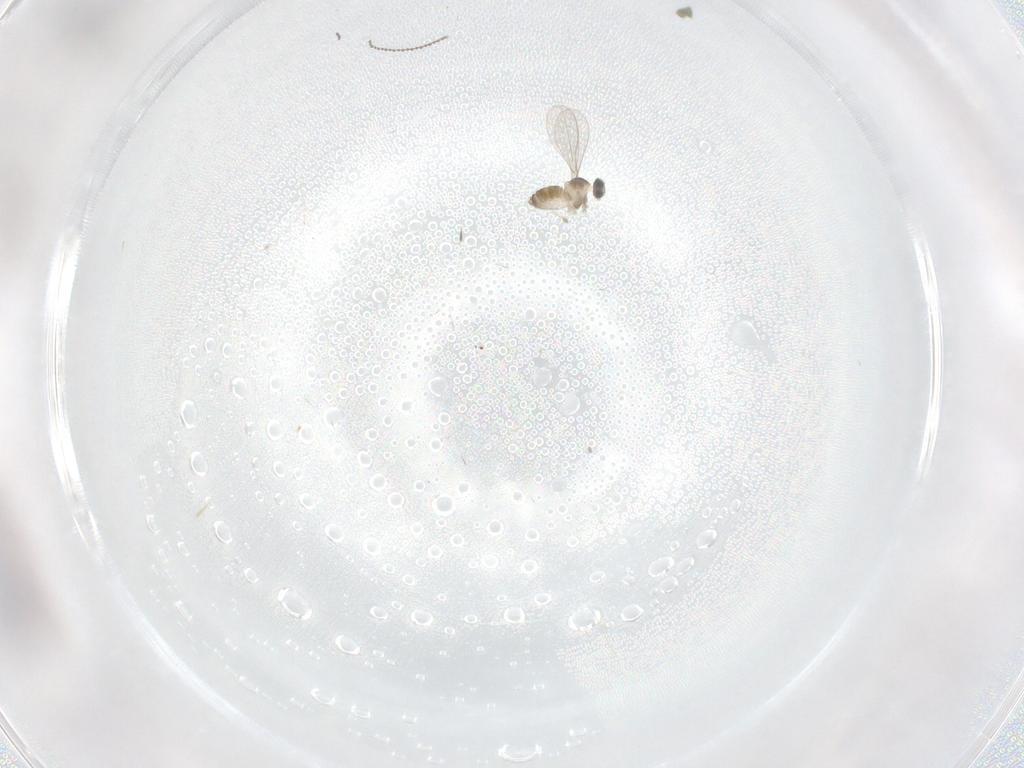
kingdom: Animalia
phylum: Arthropoda
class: Insecta
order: Diptera
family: Cecidomyiidae
